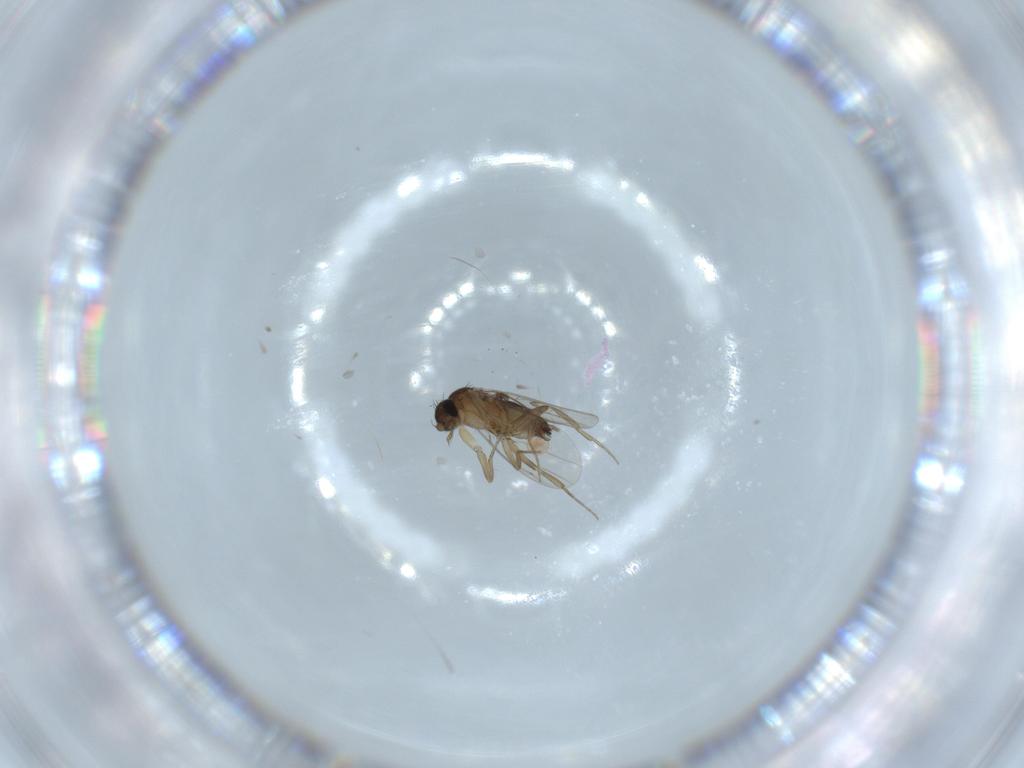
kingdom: Animalia
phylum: Arthropoda
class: Insecta
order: Diptera
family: Phoridae
